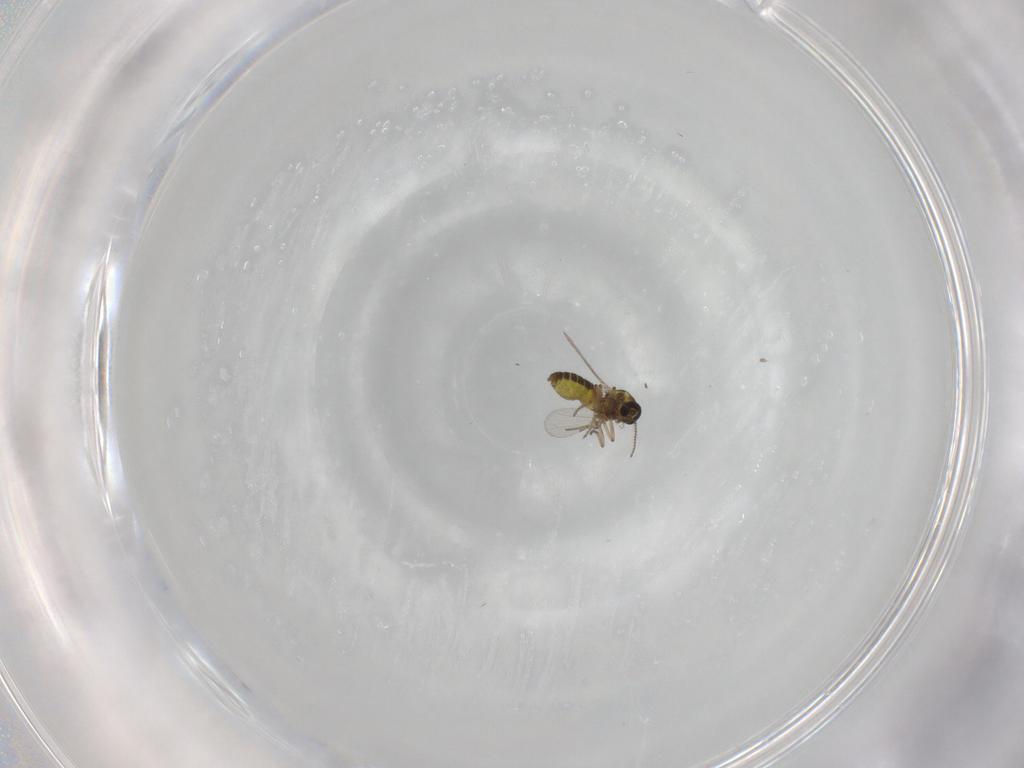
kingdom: Animalia
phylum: Arthropoda
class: Insecta
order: Diptera
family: Ceratopogonidae
